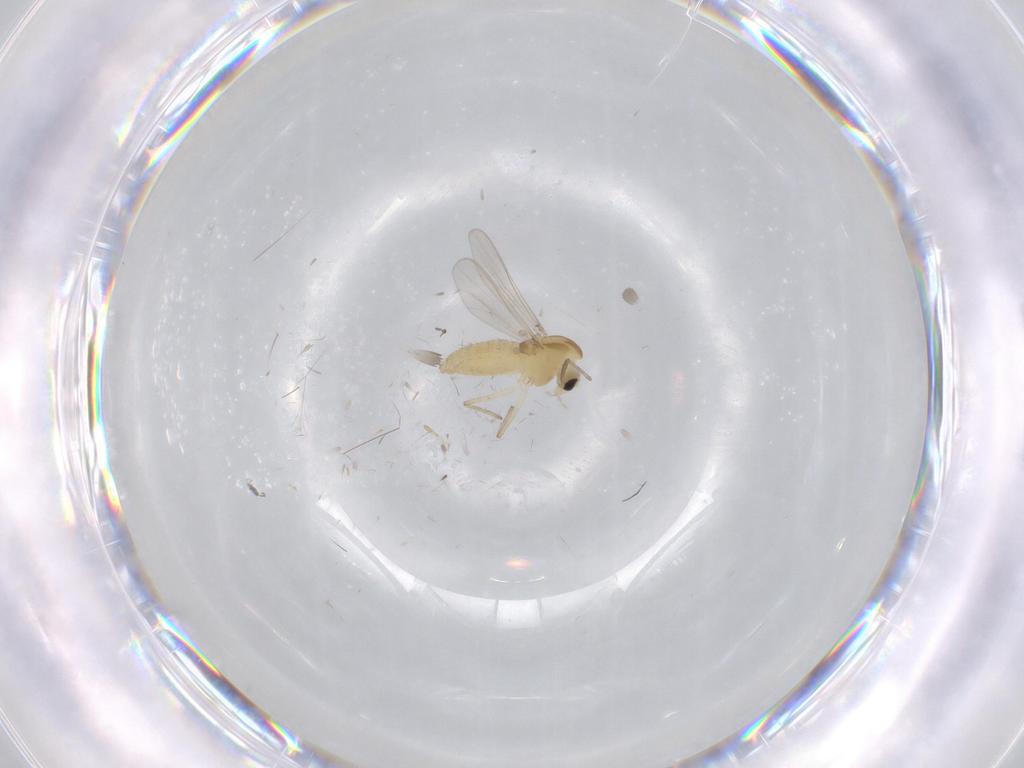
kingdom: Animalia
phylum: Arthropoda
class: Insecta
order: Diptera
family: Chironomidae
